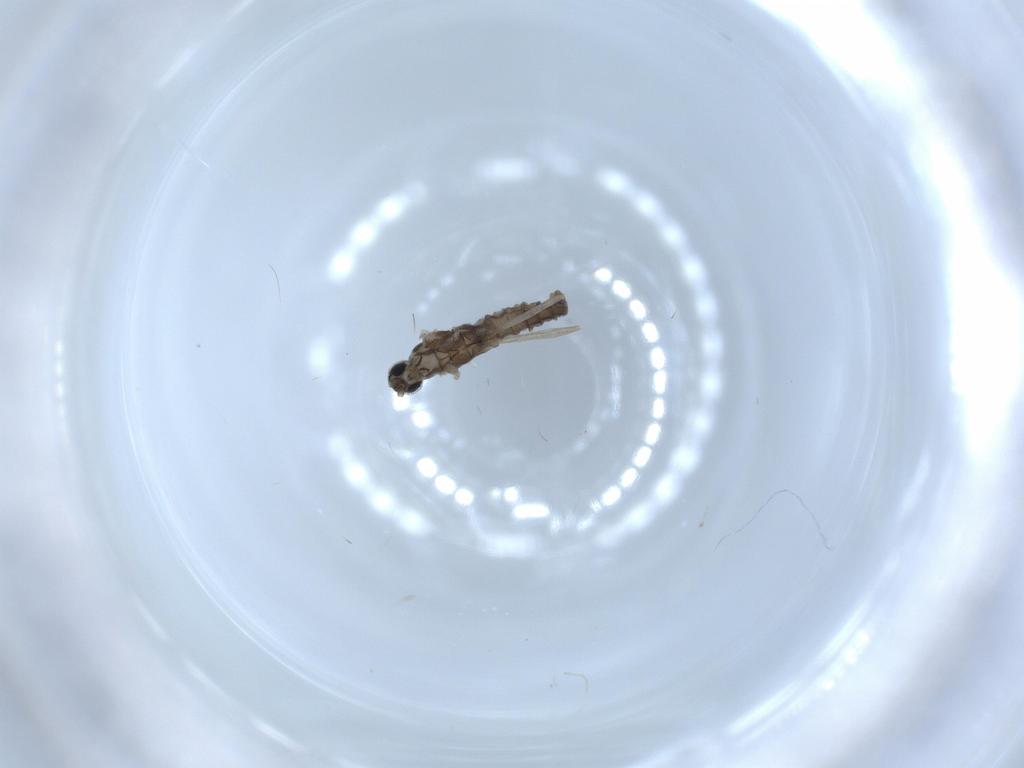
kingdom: Animalia
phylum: Arthropoda
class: Insecta
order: Diptera
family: Cecidomyiidae
